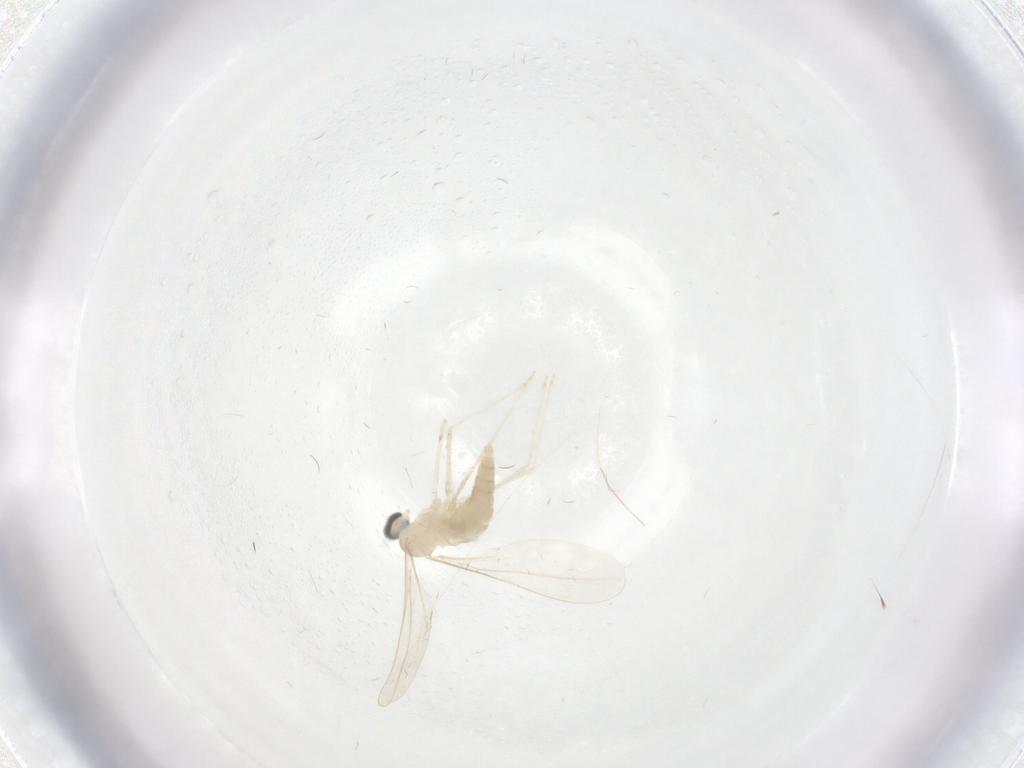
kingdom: Animalia
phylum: Arthropoda
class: Insecta
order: Diptera
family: Cecidomyiidae
